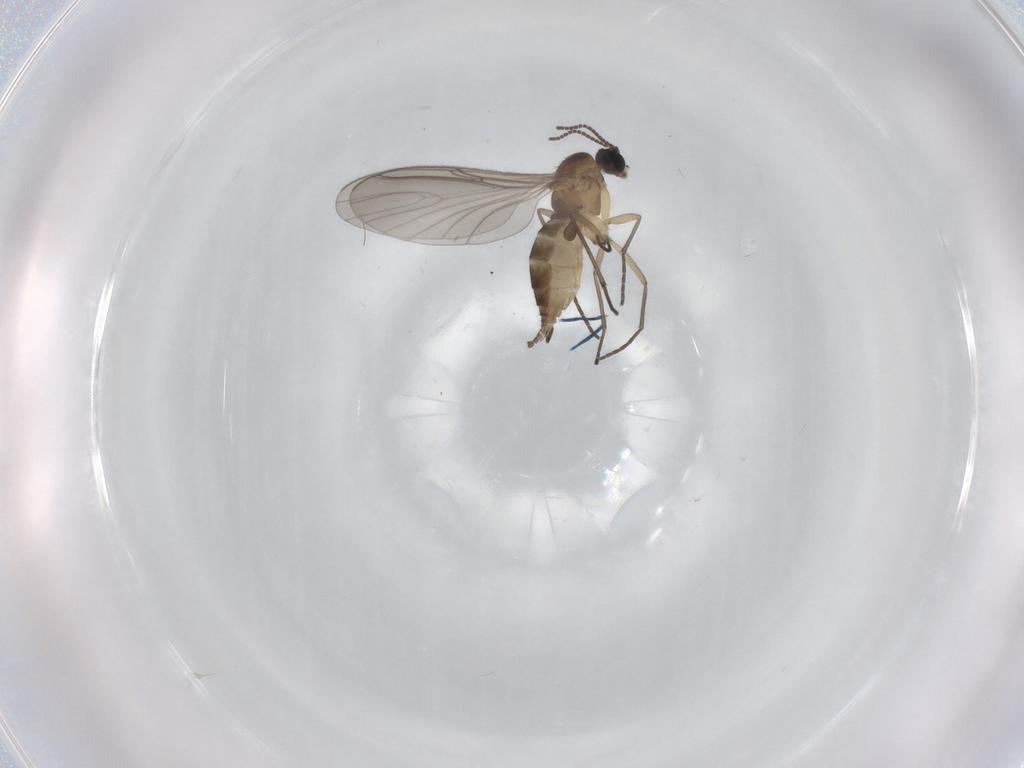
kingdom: Animalia
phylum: Arthropoda
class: Insecta
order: Diptera
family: Sciaridae
